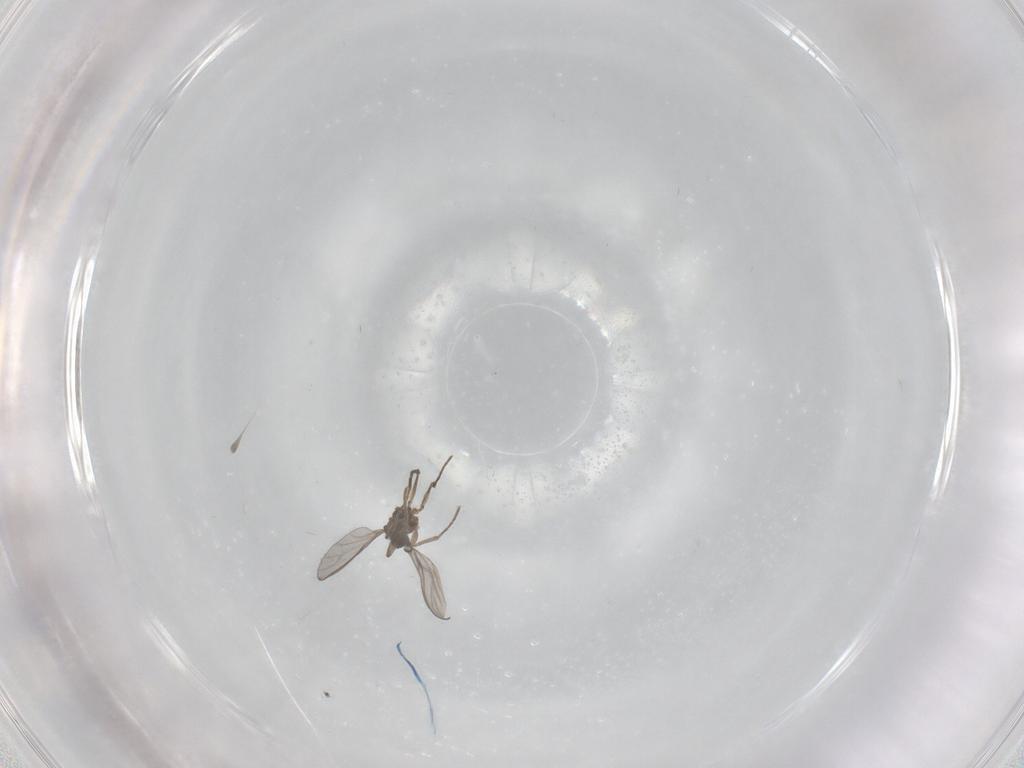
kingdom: Animalia
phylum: Arthropoda
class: Insecta
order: Diptera
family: Sciaridae
